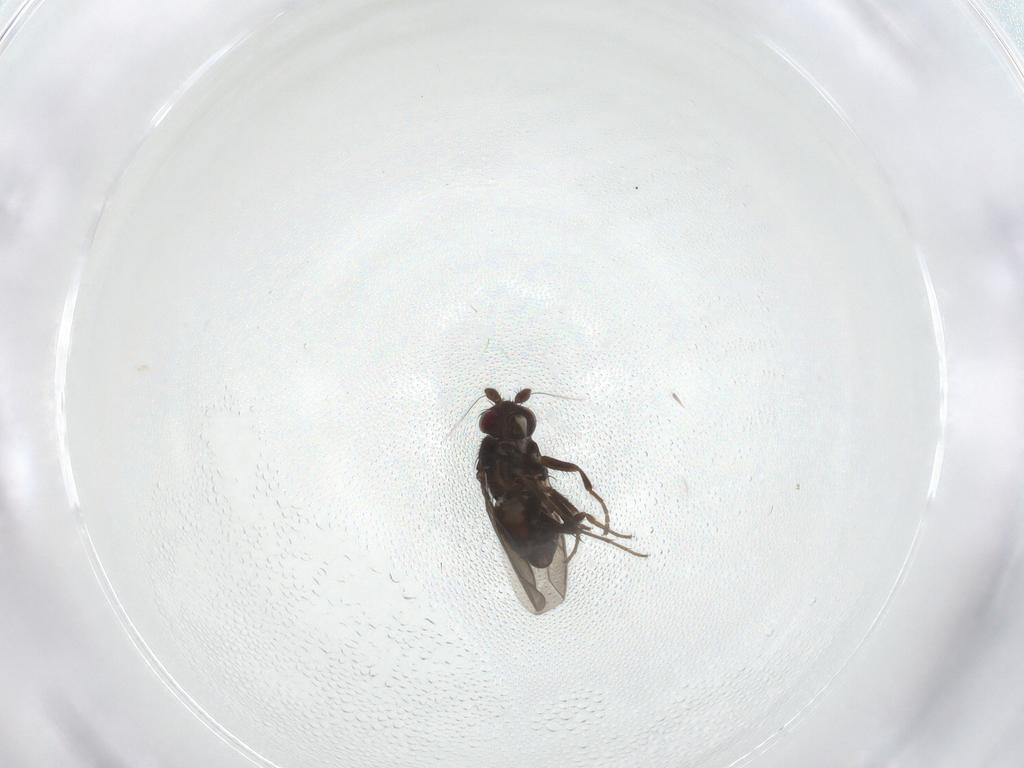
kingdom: Animalia
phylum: Arthropoda
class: Insecta
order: Diptera
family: Sphaeroceridae
